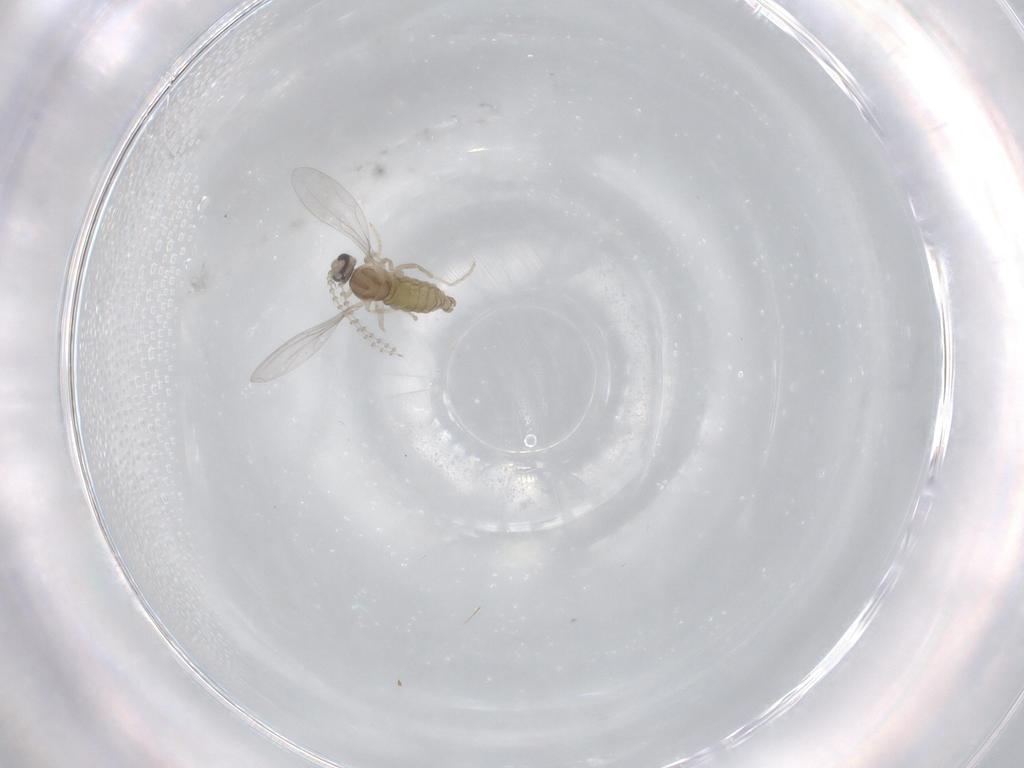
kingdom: Animalia
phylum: Arthropoda
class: Insecta
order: Diptera
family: Cecidomyiidae
